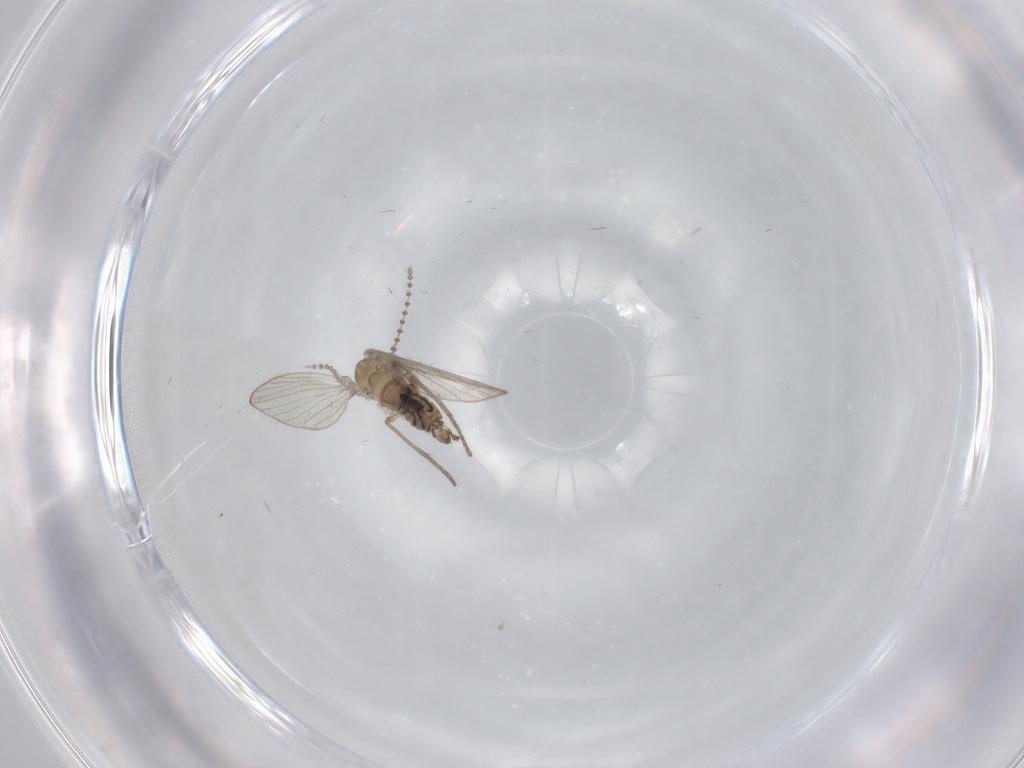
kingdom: Animalia
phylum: Arthropoda
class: Insecta
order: Diptera
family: Psychodidae
